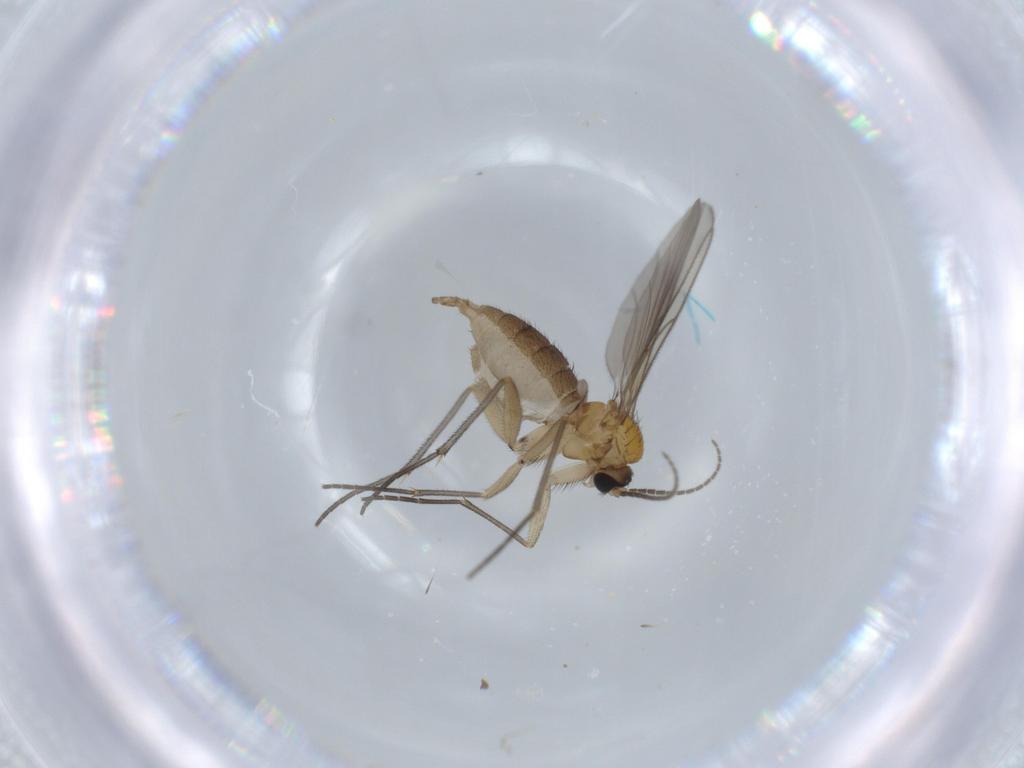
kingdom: Animalia
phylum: Arthropoda
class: Insecta
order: Diptera
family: Sciaridae
